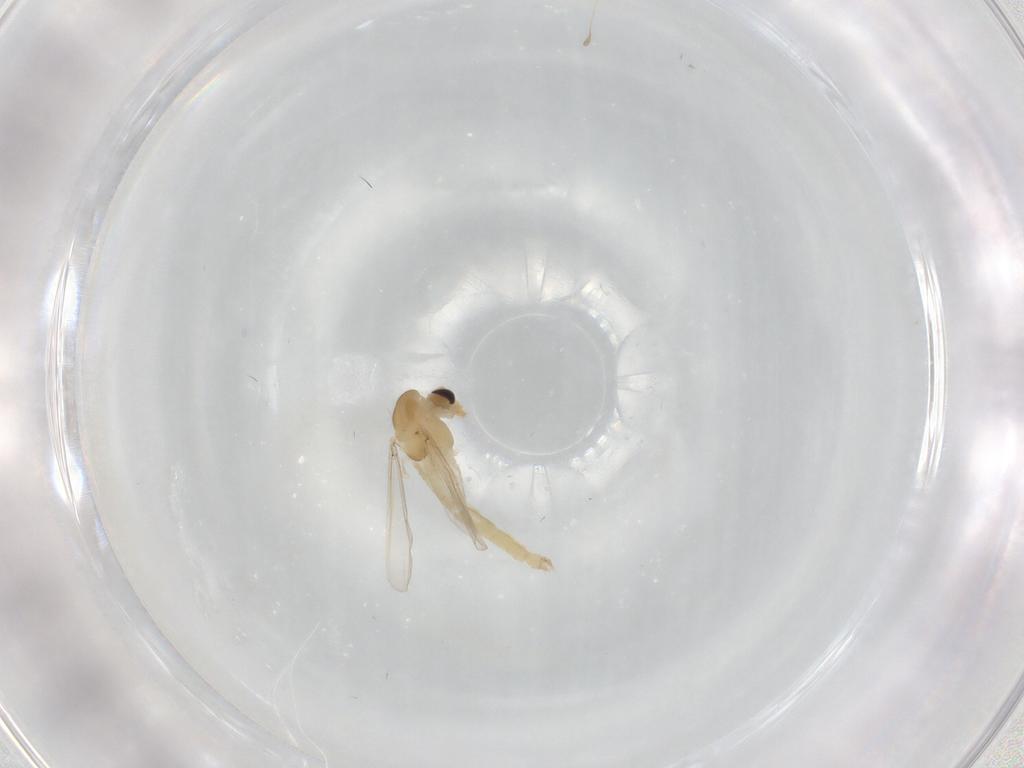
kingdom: Animalia
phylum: Arthropoda
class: Insecta
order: Diptera
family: Chironomidae
